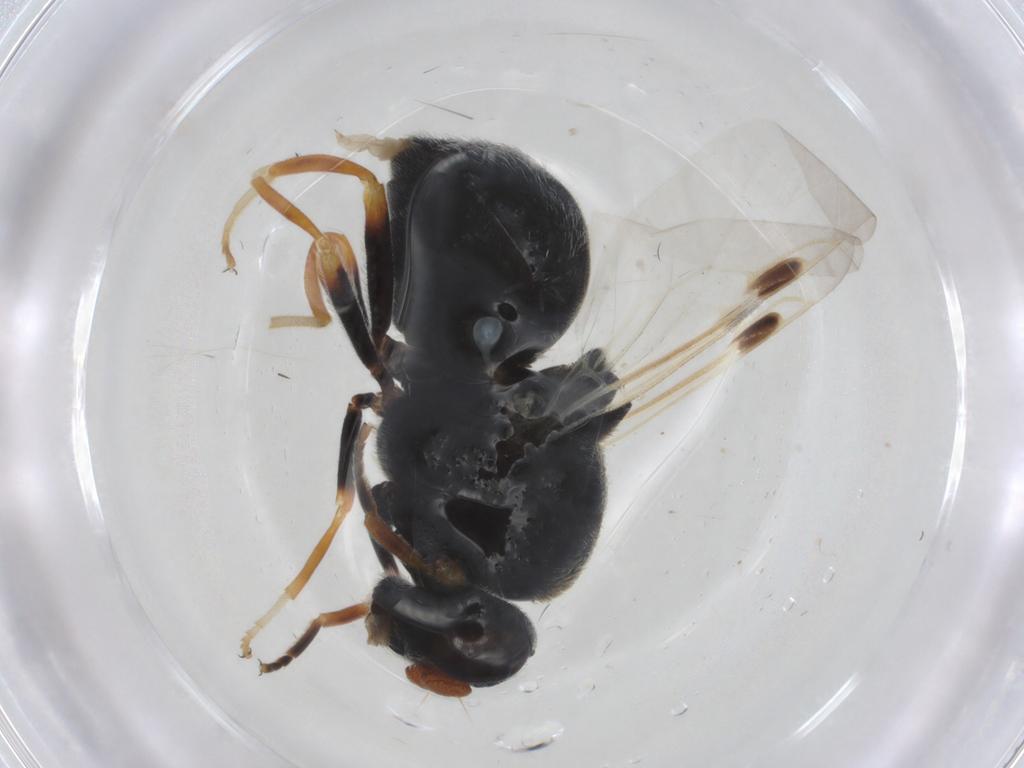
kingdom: Animalia
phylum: Arthropoda
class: Insecta
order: Diptera
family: Stratiomyidae
